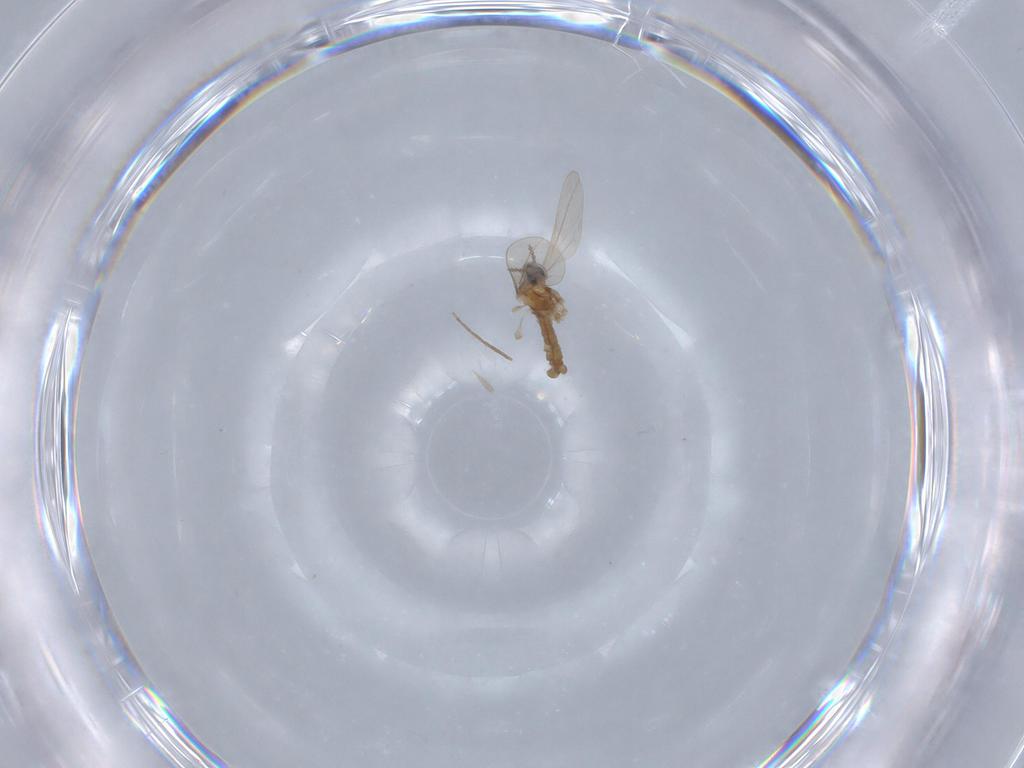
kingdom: Animalia
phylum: Arthropoda
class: Insecta
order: Diptera
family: Cecidomyiidae
